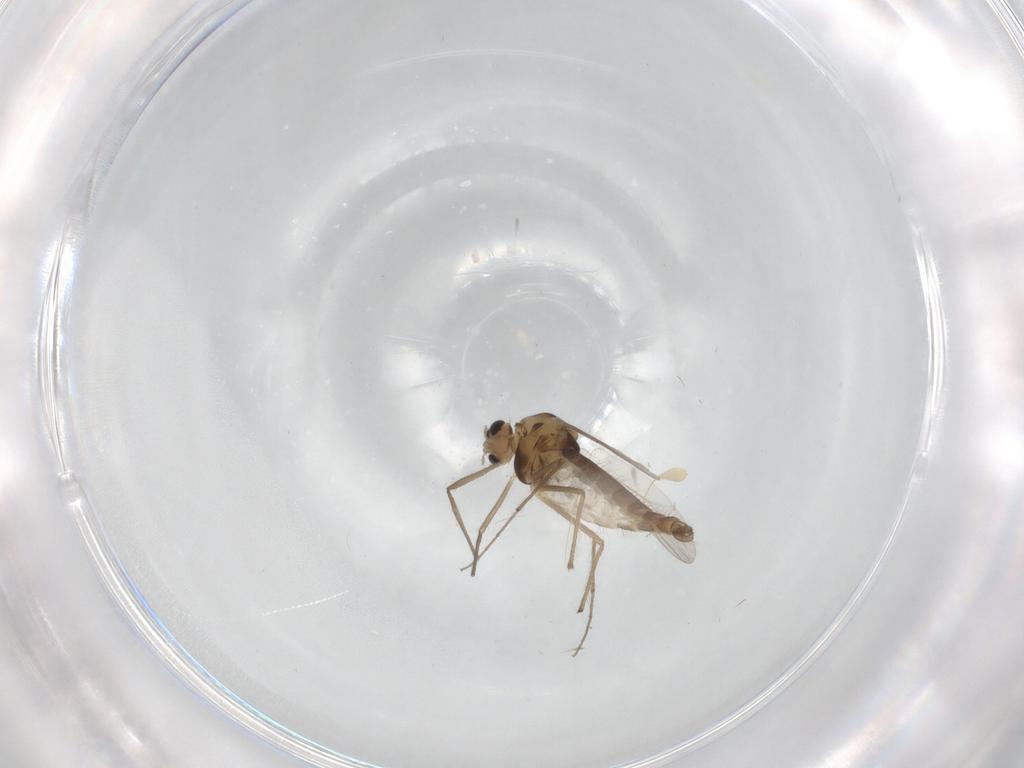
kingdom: Animalia
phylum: Arthropoda
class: Insecta
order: Diptera
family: Chironomidae
